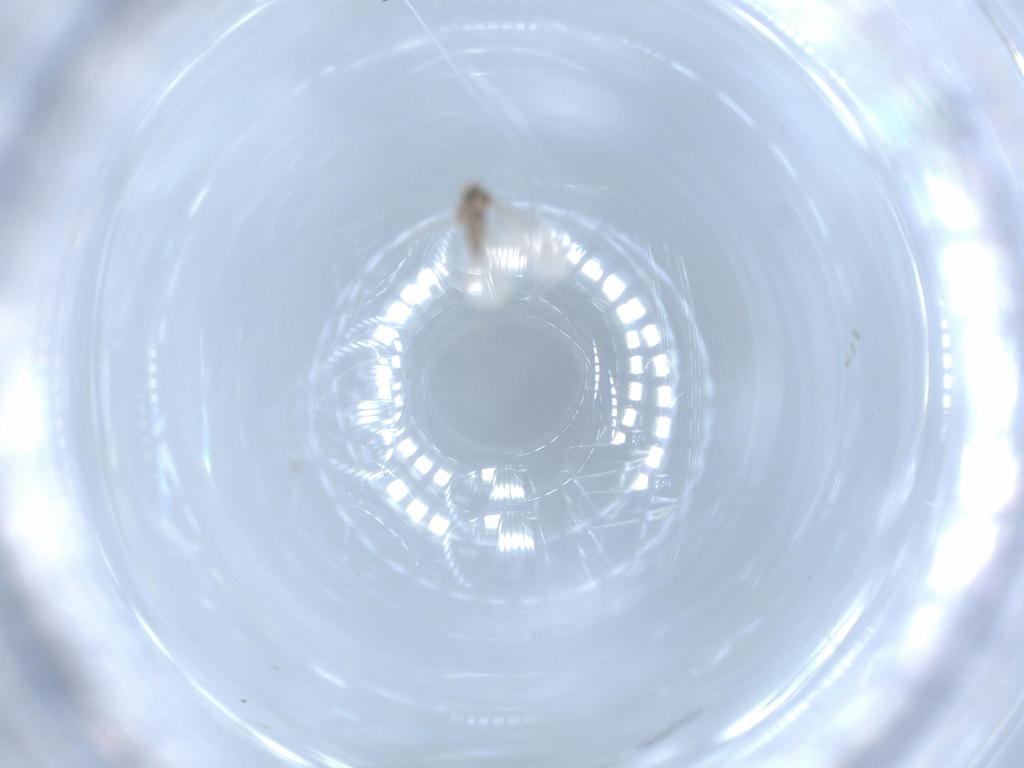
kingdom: Animalia
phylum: Arthropoda
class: Insecta
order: Diptera
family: Cecidomyiidae
